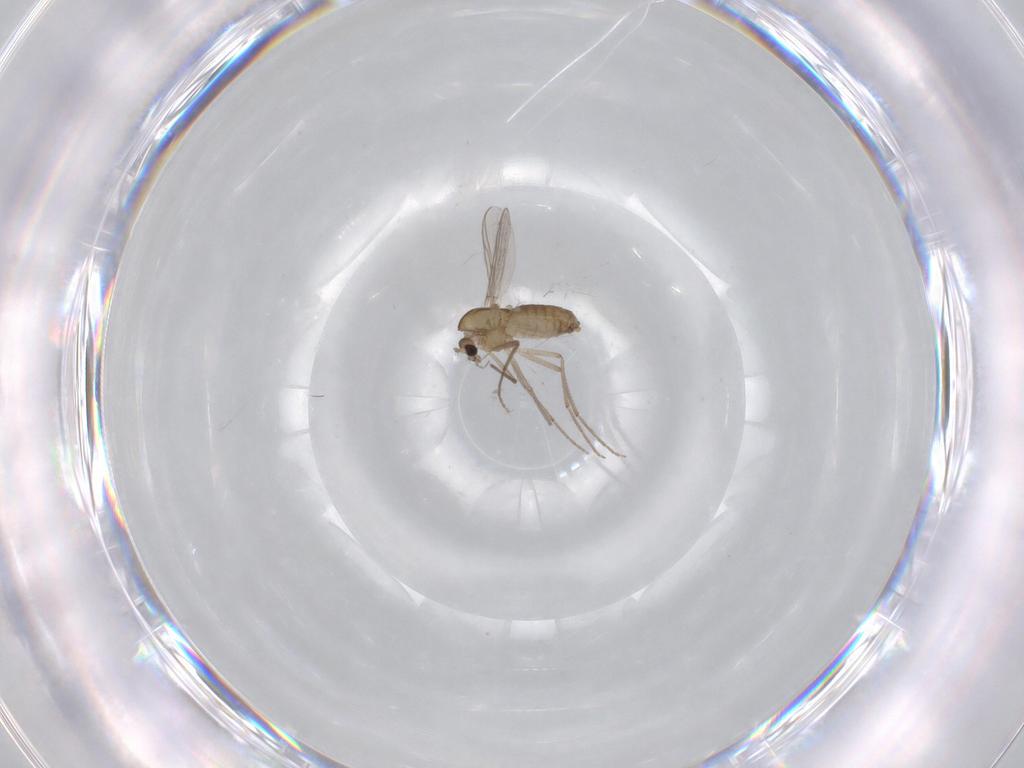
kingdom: Animalia
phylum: Arthropoda
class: Insecta
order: Diptera
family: Chironomidae
